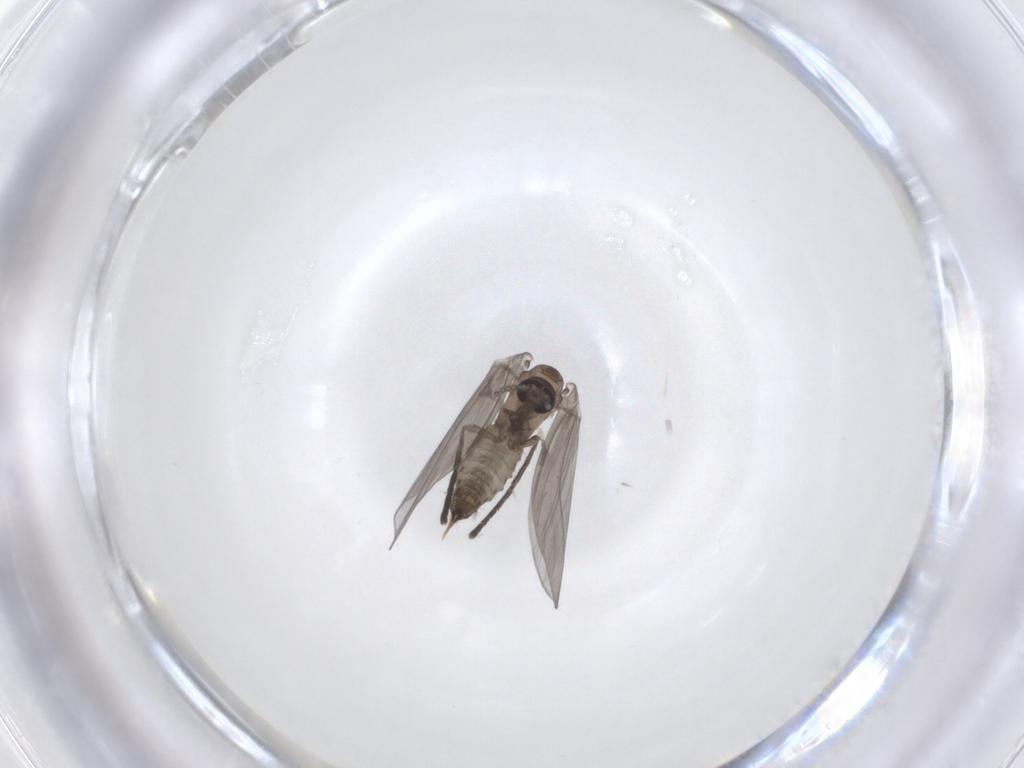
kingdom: Animalia
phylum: Arthropoda
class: Insecta
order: Diptera
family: Psychodidae
